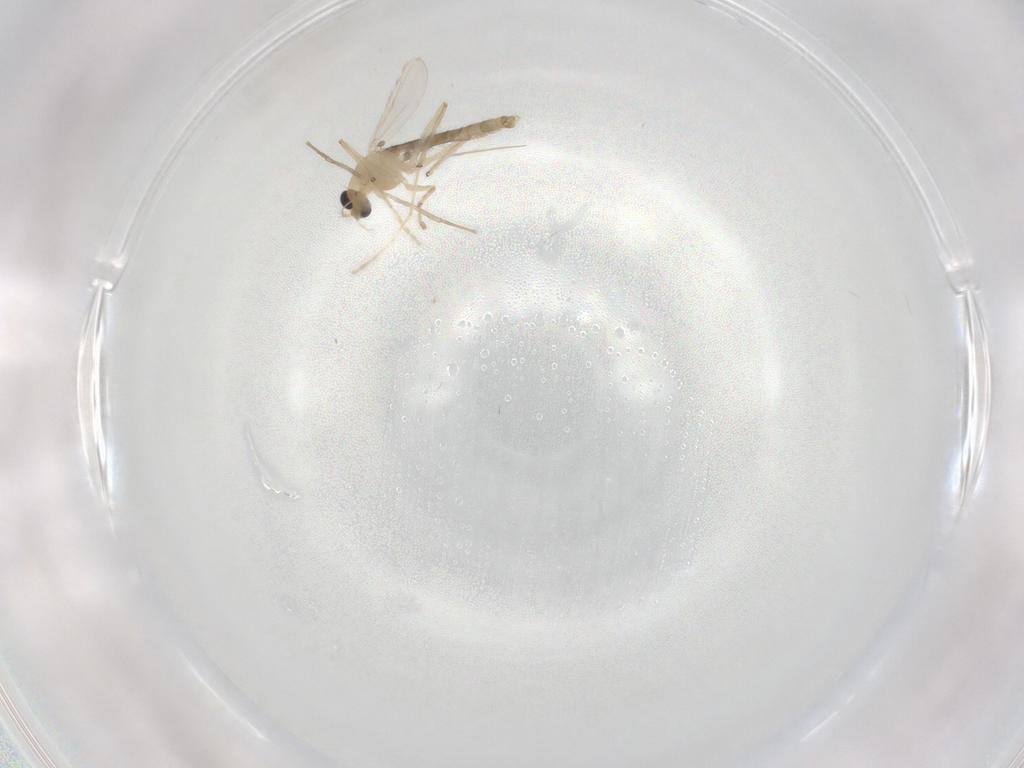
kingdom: Animalia
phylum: Arthropoda
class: Insecta
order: Diptera
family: Chironomidae
